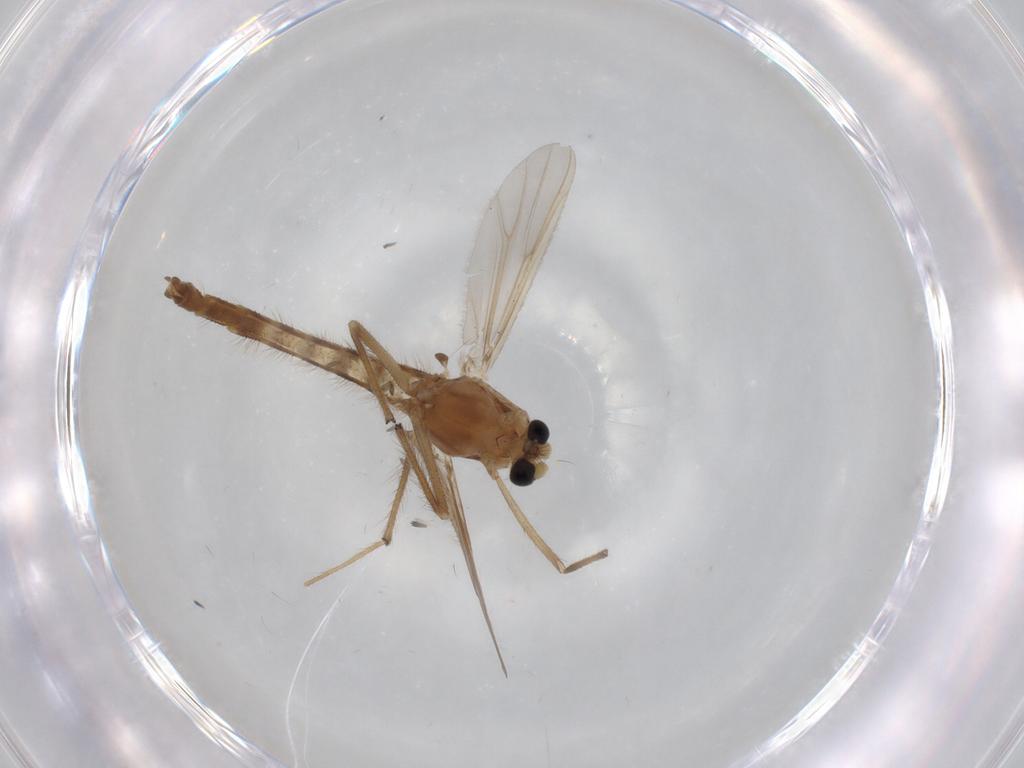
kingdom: Animalia
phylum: Arthropoda
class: Insecta
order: Diptera
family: Chironomidae
